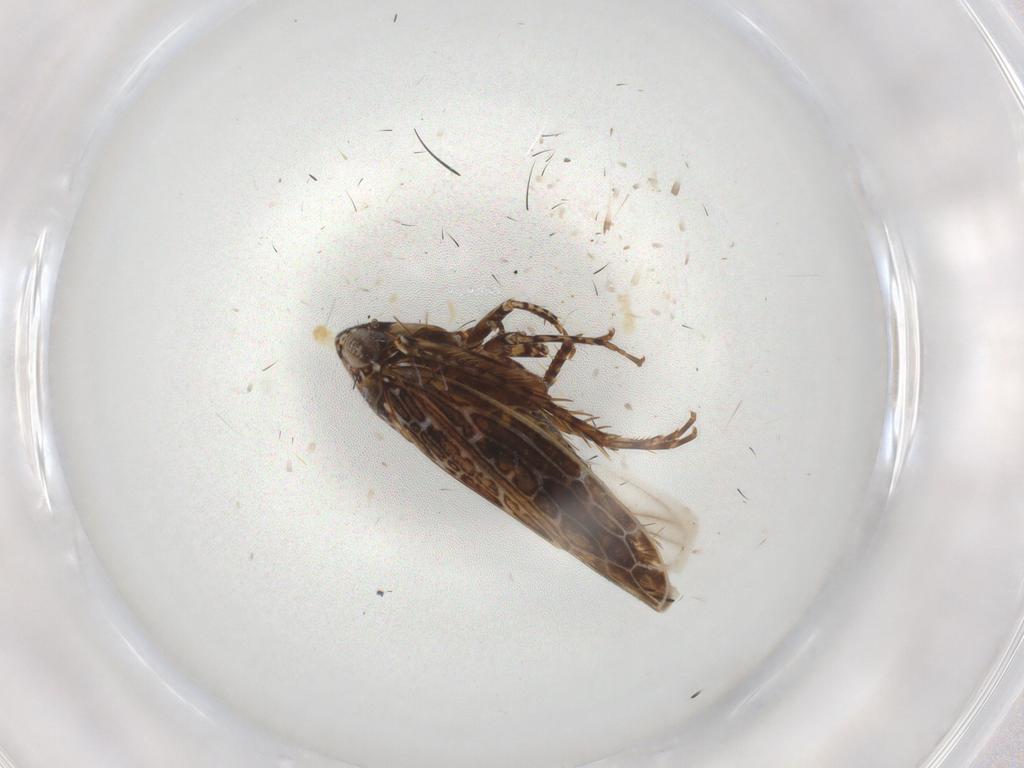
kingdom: Animalia
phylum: Arthropoda
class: Insecta
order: Hemiptera
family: Cicadellidae
